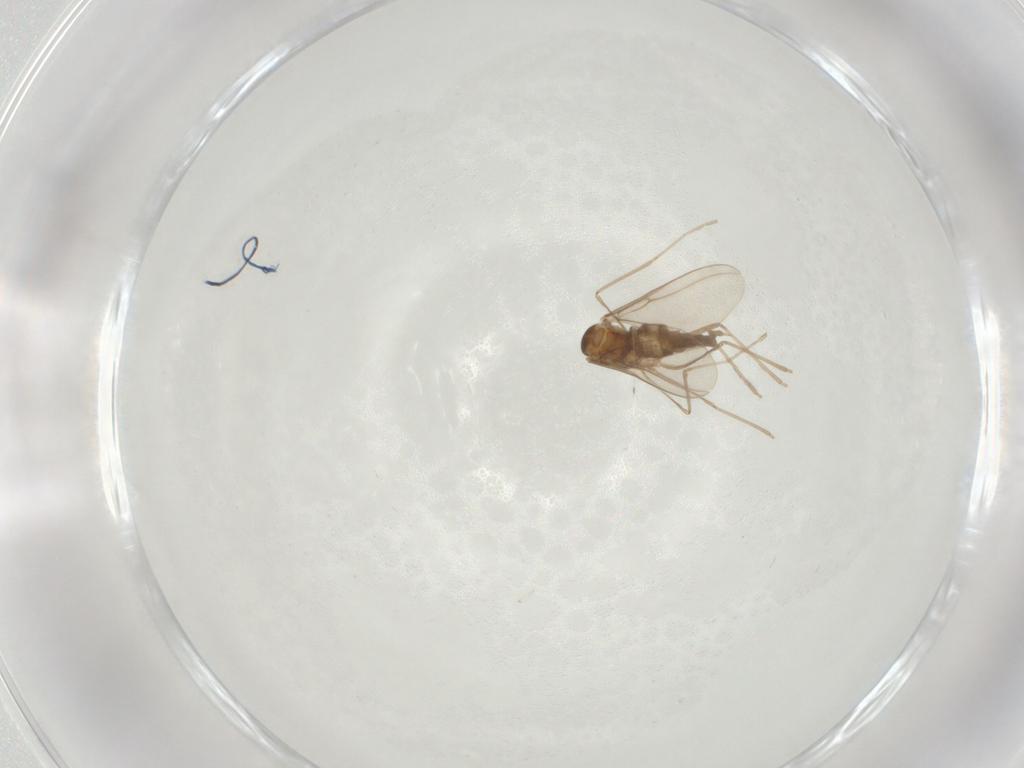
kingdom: Animalia
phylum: Arthropoda
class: Insecta
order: Diptera
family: Cecidomyiidae
